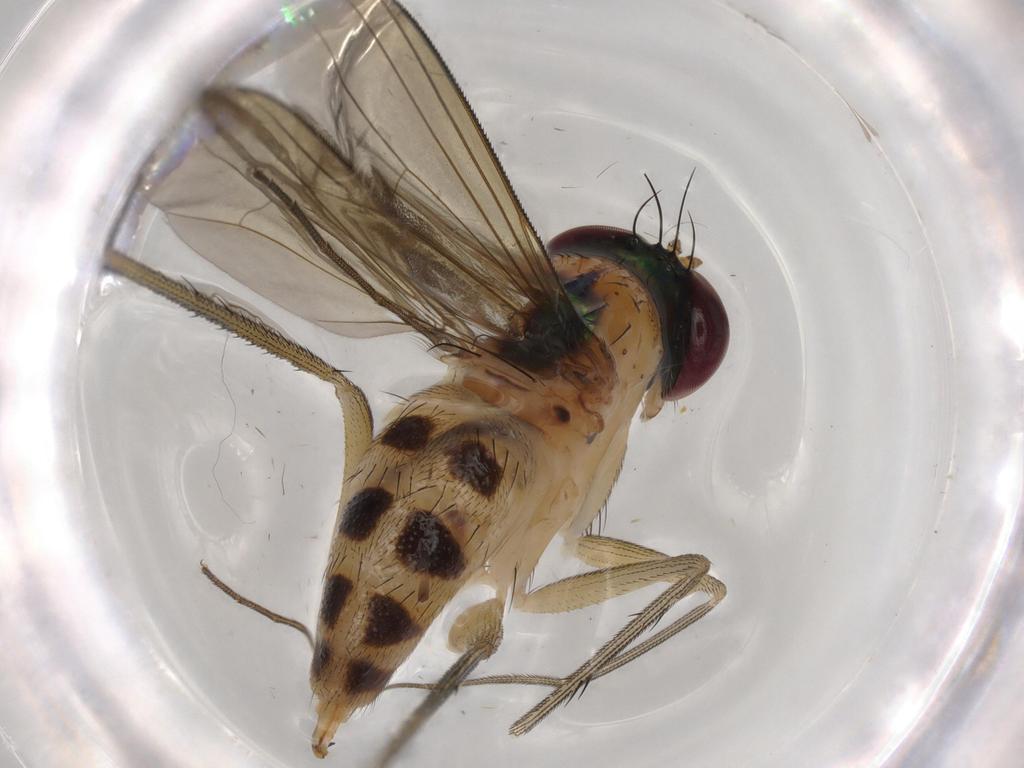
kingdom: Animalia
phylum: Arthropoda
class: Insecta
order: Diptera
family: Dolichopodidae
